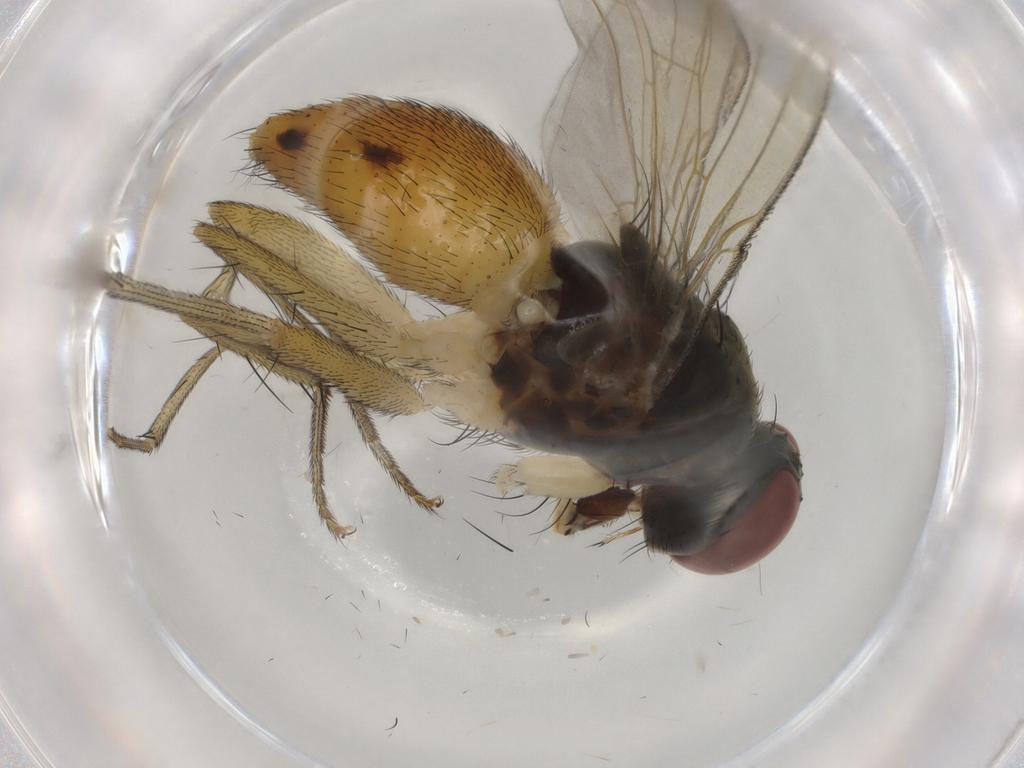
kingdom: Animalia
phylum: Arthropoda
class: Insecta
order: Diptera
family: Muscidae
